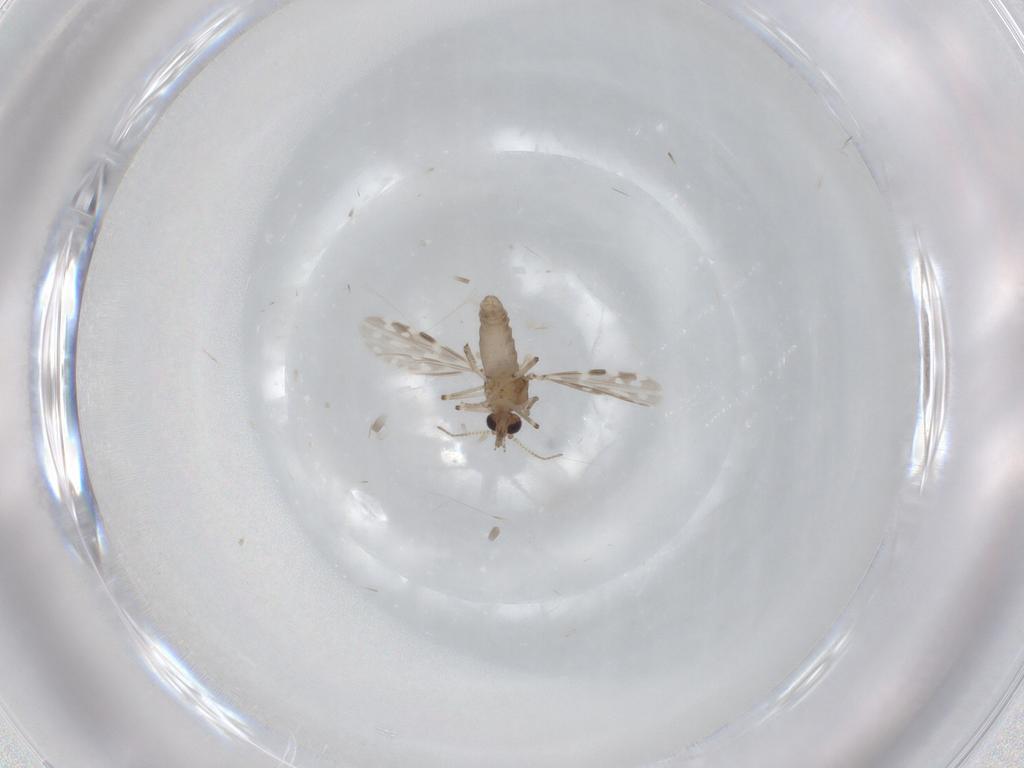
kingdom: Animalia
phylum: Arthropoda
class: Insecta
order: Diptera
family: Ceratopogonidae
